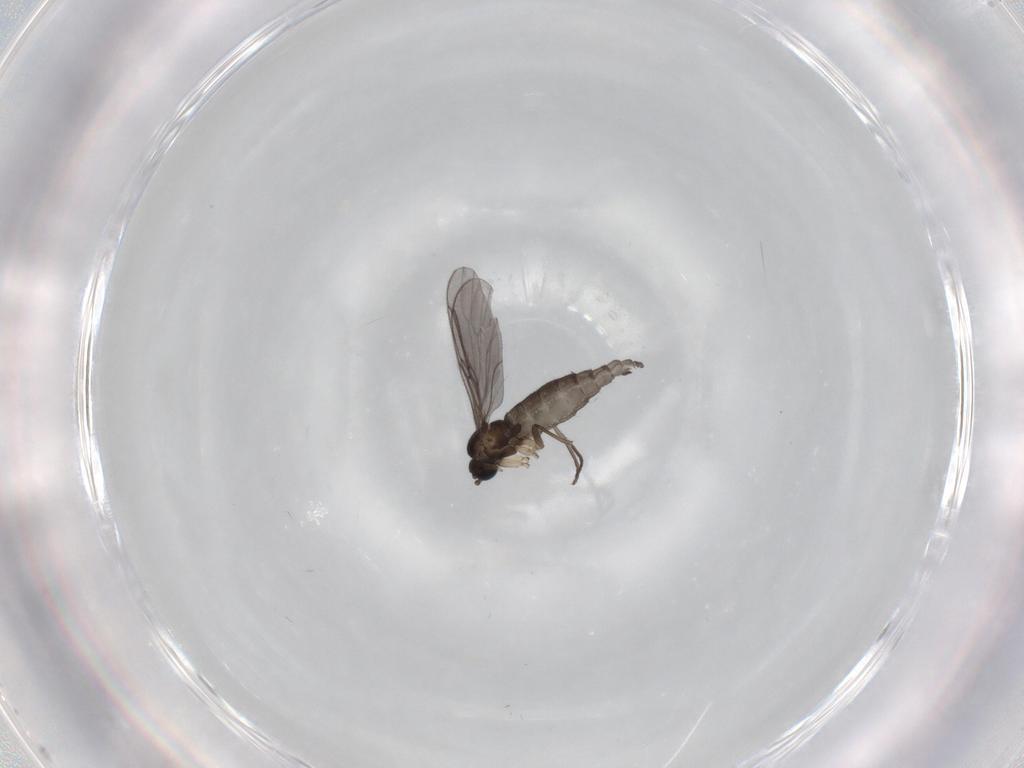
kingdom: Animalia
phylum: Arthropoda
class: Insecta
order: Diptera
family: Sciaridae
